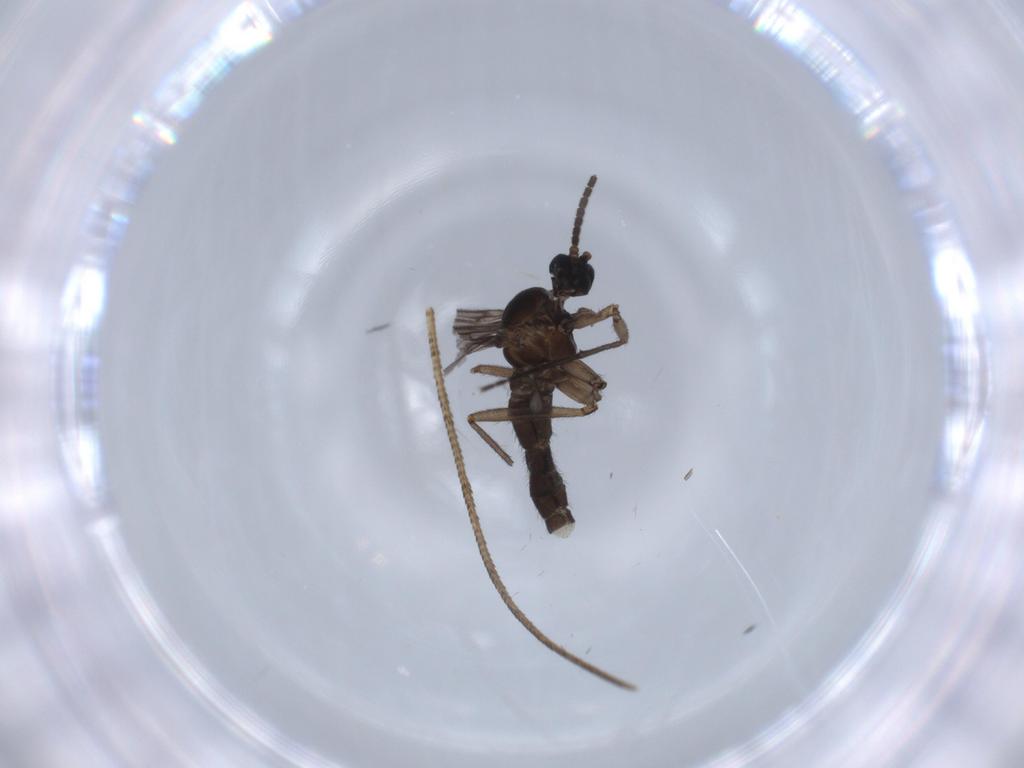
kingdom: Animalia
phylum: Arthropoda
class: Insecta
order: Diptera
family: Sciaridae
